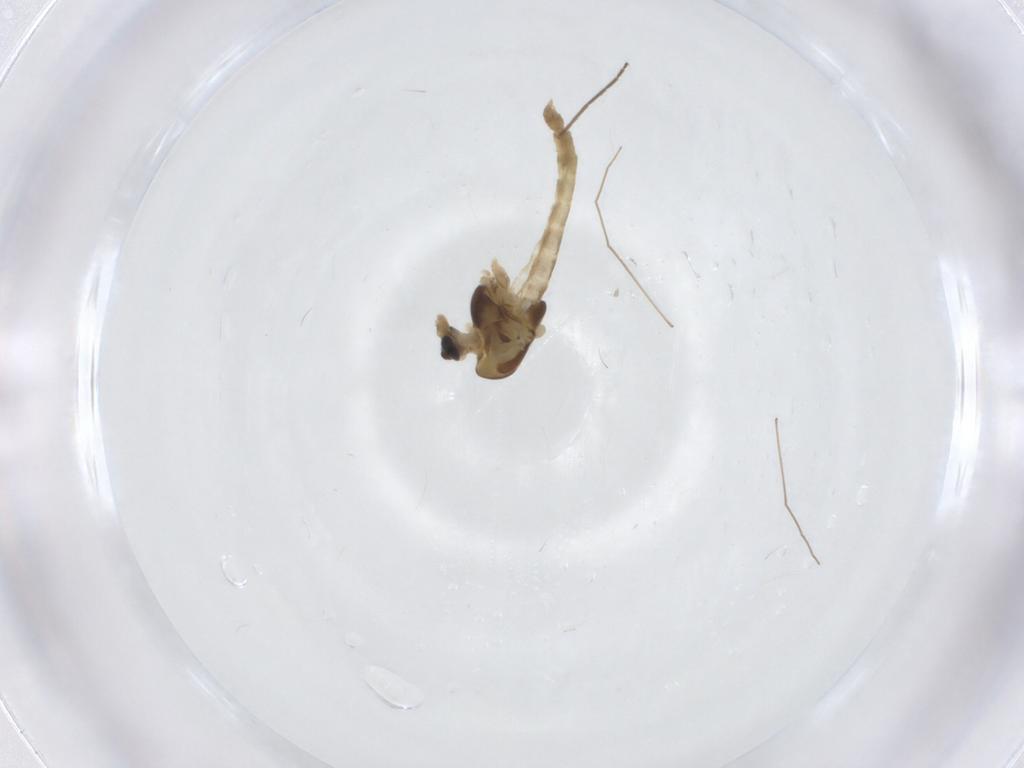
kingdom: Animalia
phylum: Arthropoda
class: Insecta
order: Diptera
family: Chironomidae
